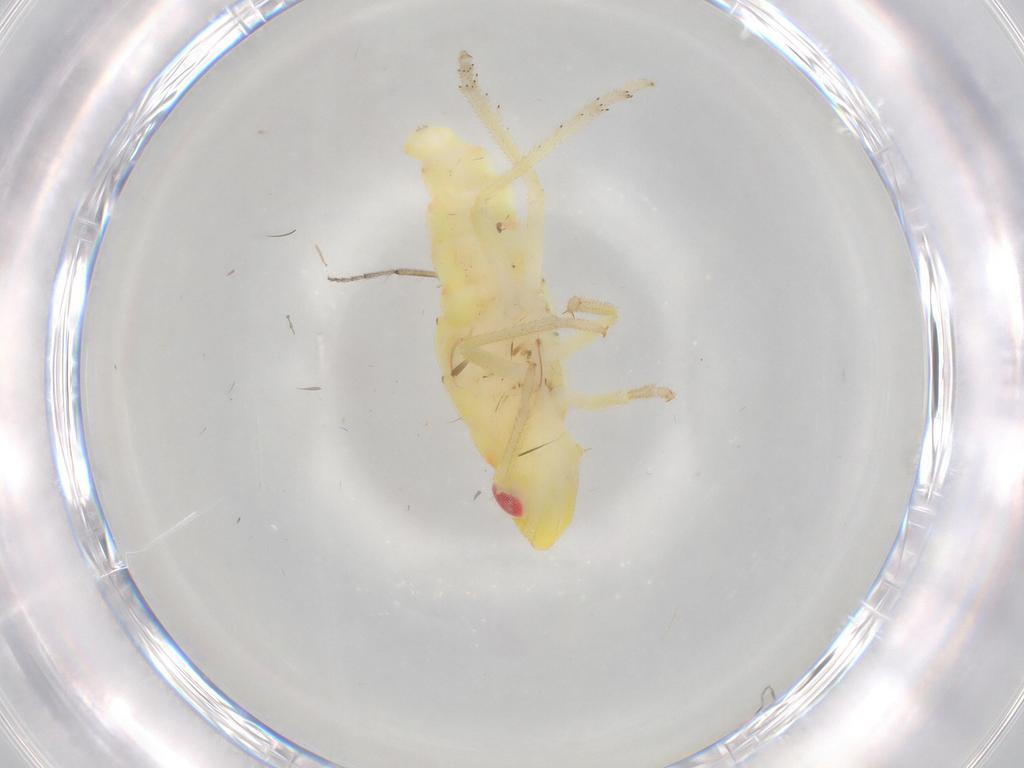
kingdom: Animalia
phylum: Arthropoda
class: Insecta
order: Hemiptera
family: Tropiduchidae
